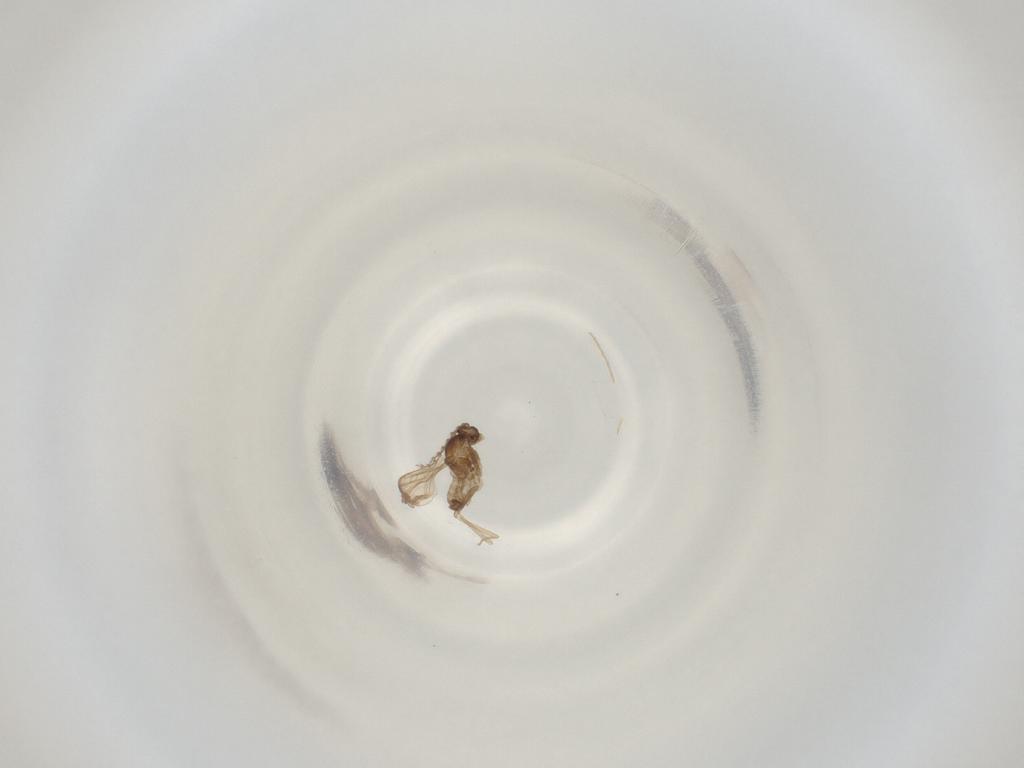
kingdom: Animalia
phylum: Arthropoda
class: Insecta
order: Diptera
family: Cecidomyiidae
